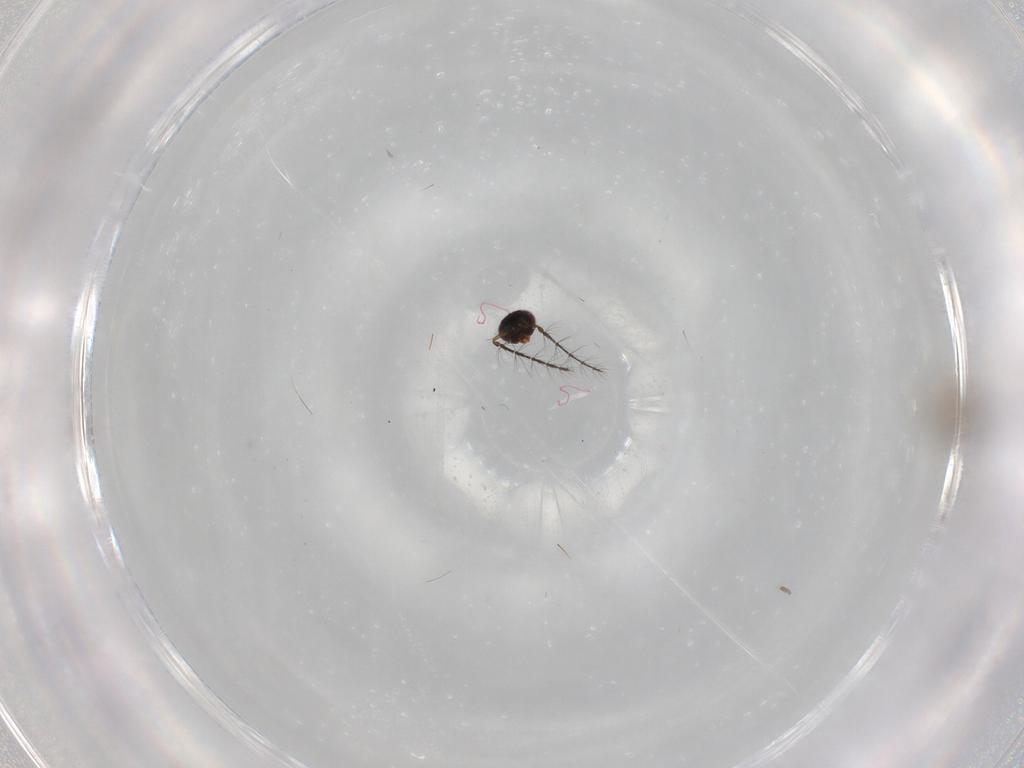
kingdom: Animalia
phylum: Arthropoda
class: Insecta
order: Hymenoptera
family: Eulophidae
